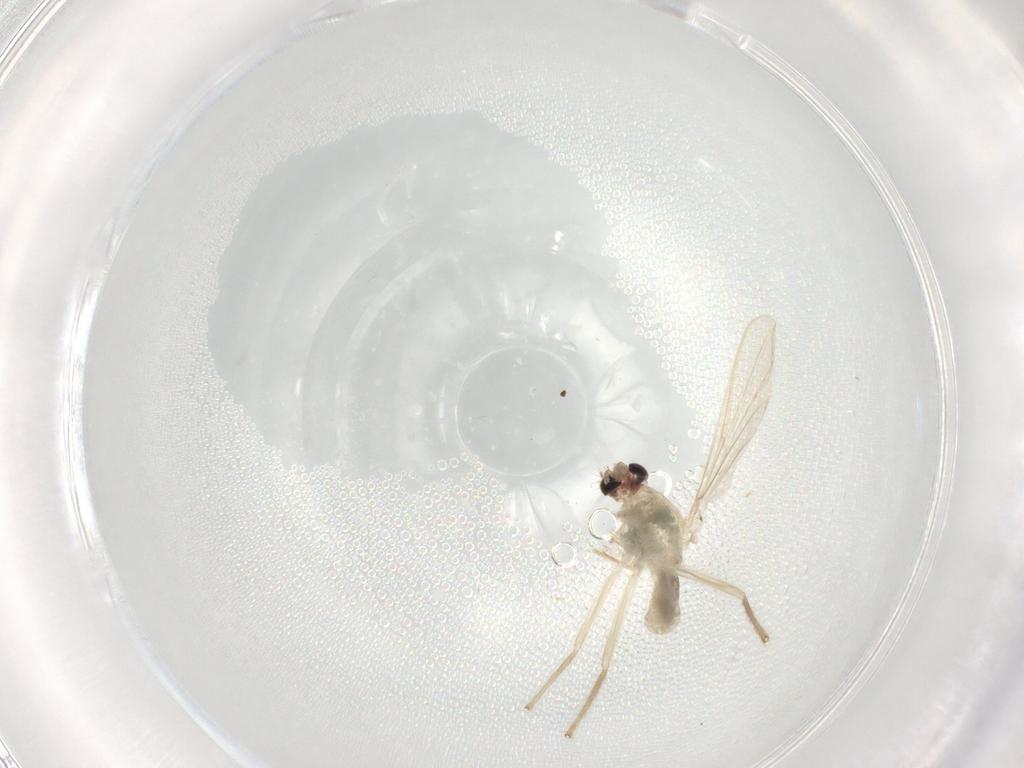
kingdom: Animalia
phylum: Arthropoda
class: Insecta
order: Diptera
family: Chironomidae
